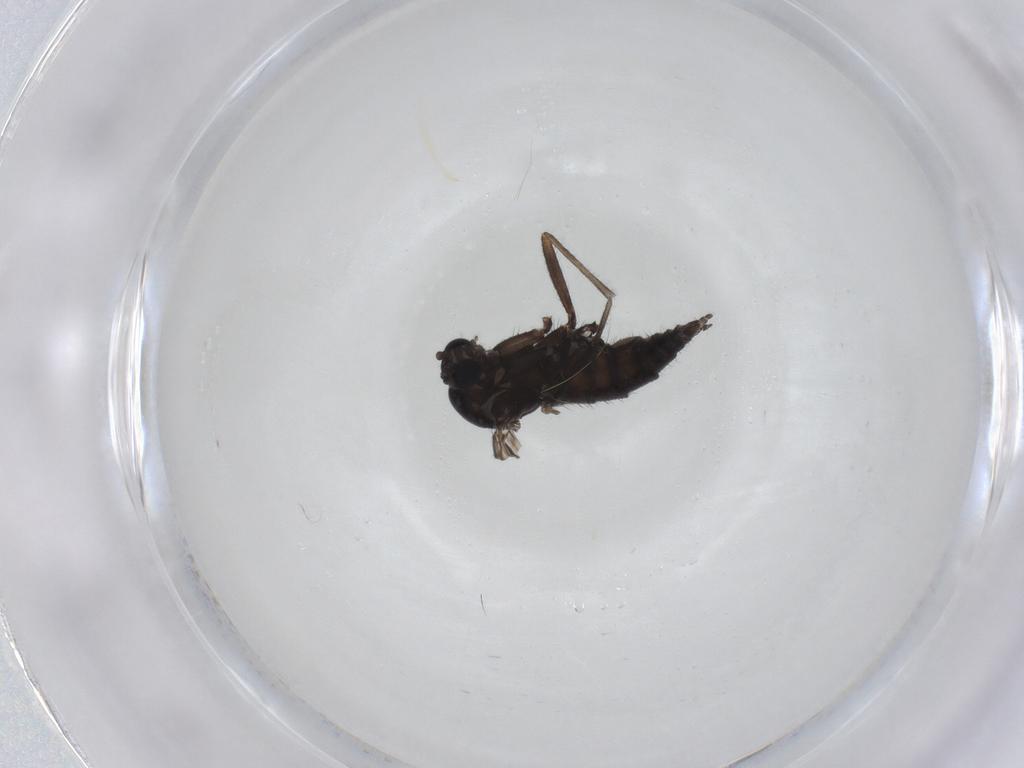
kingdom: Animalia
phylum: Arthropoda
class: Insecta
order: Diptera
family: Sciaridae
